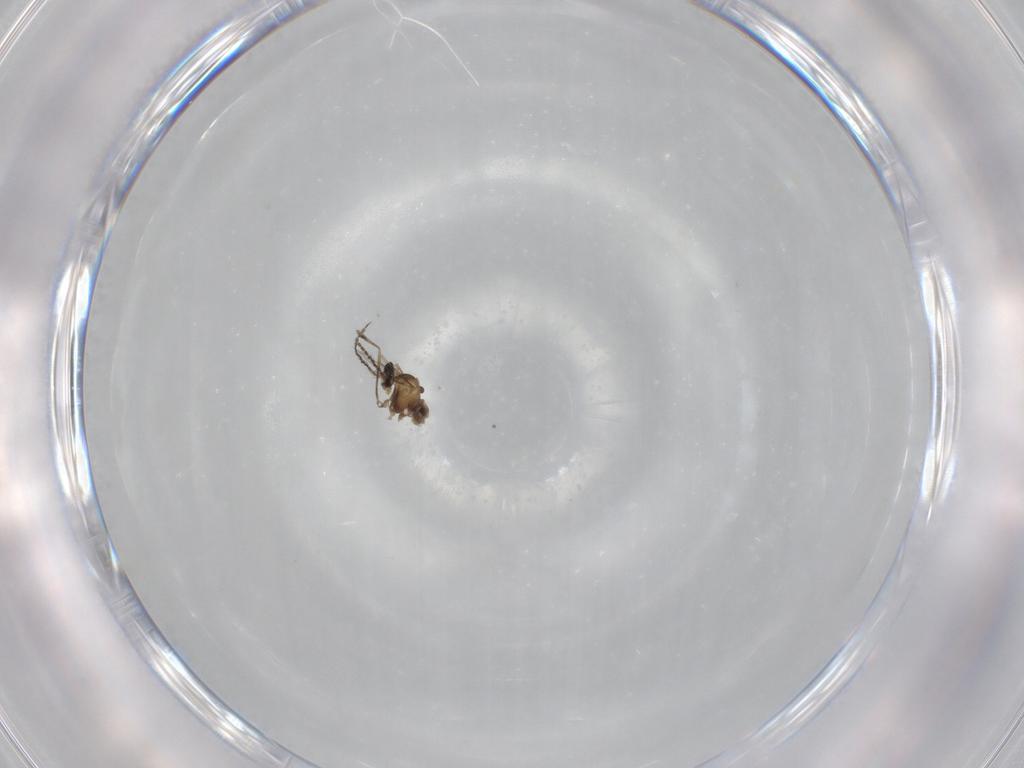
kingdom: Animalia
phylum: Arthropoda
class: Insecta
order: Diptera
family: Cecidomyiidae
